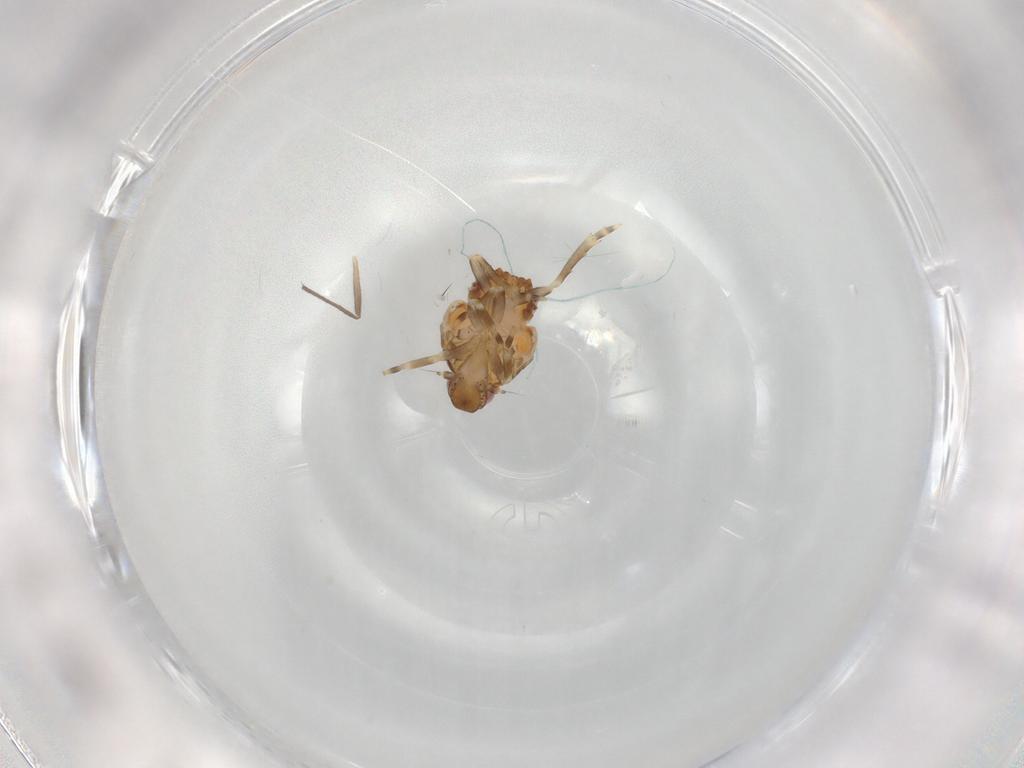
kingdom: Animalia
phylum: Arthropoda
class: Insecta
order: Hemiptera
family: Flatidae
